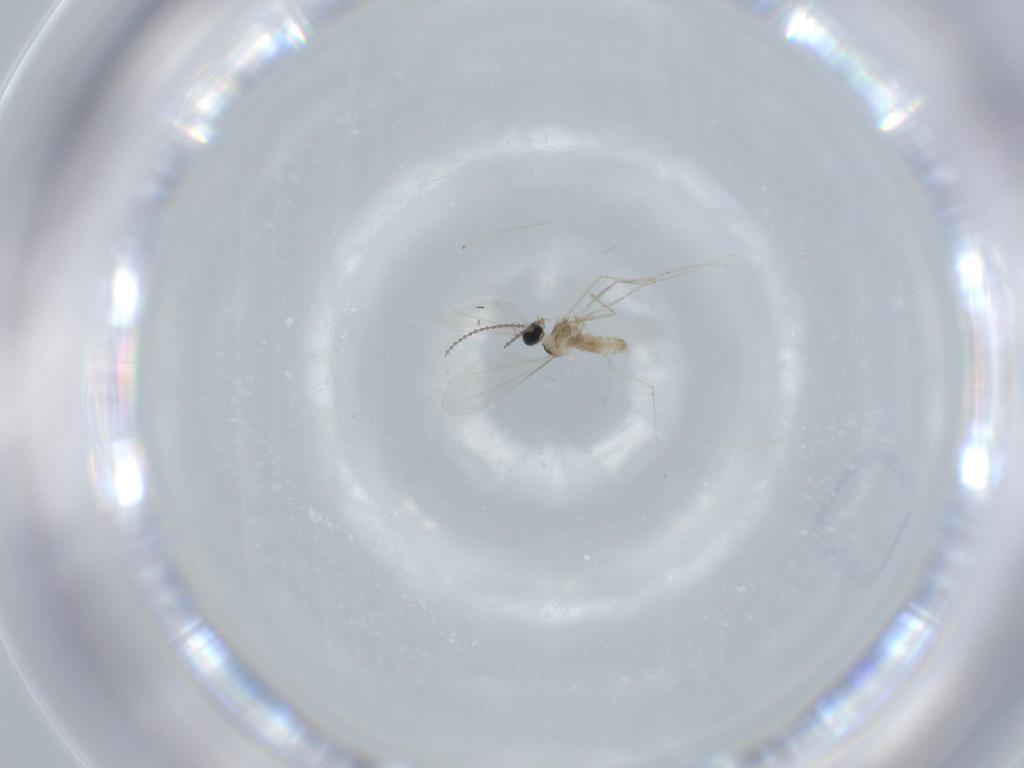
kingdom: Animalia
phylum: Arthropoda
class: Insecta
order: Diptera
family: Cecidomyiidae
